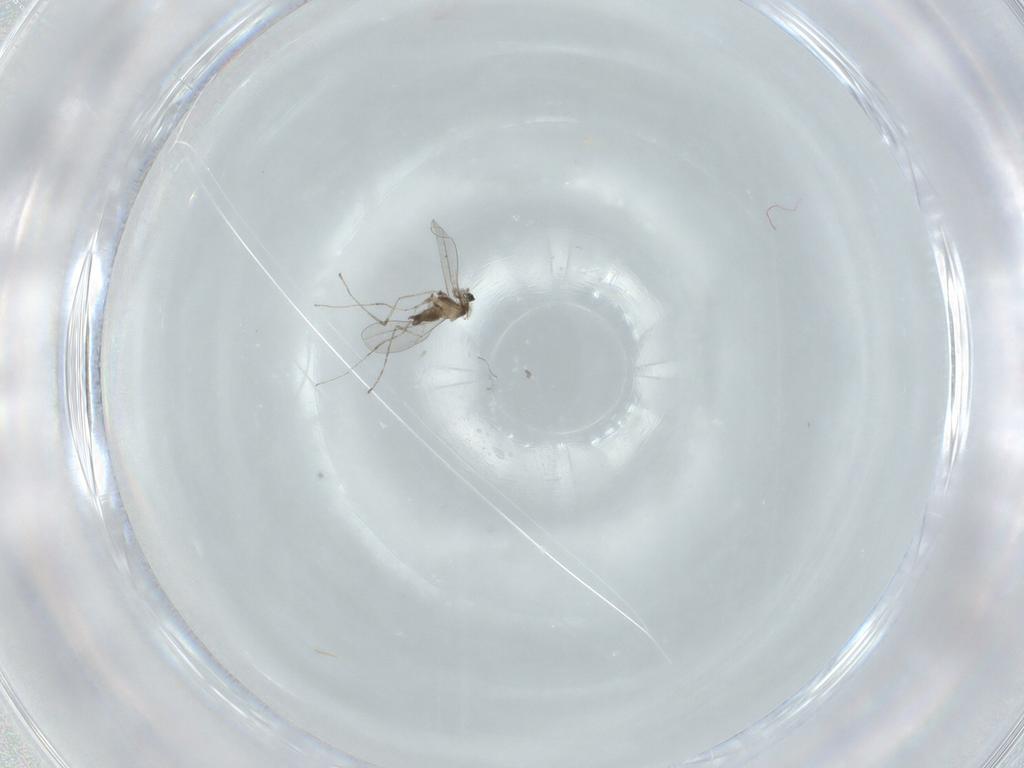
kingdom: Animalia
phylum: Arthropoda
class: Insecta
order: Diptera
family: Cecidomyiidae
